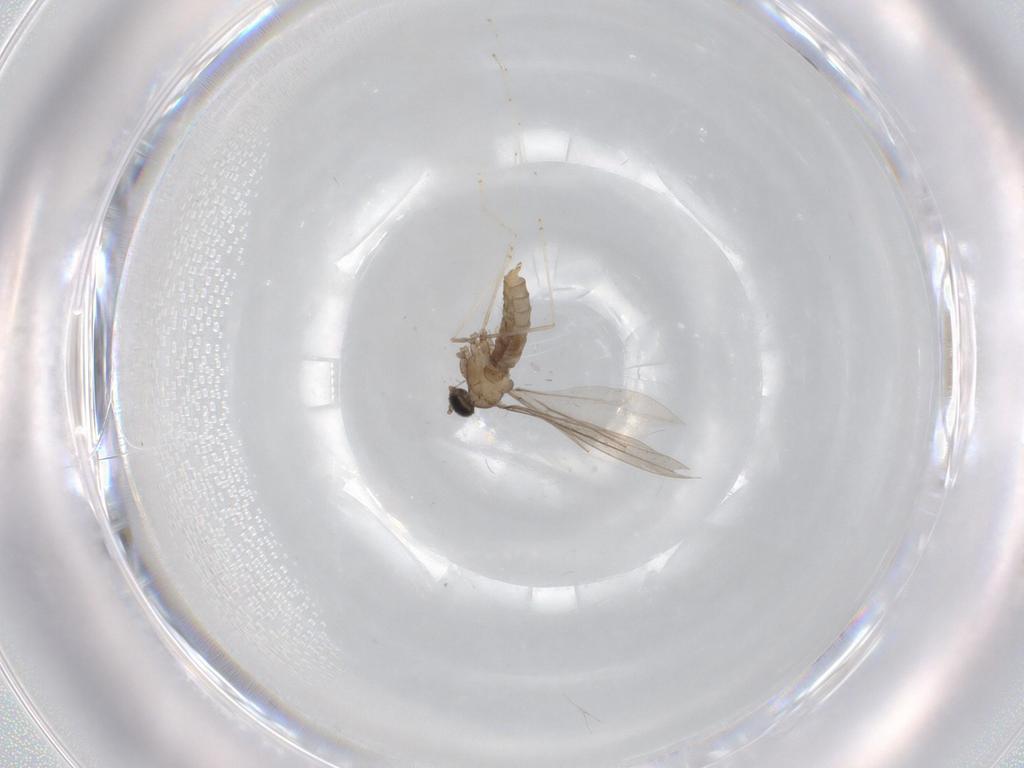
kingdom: Animalia
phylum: Arthropoda
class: Insecta
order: Diptera
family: Cecidomyiidae
